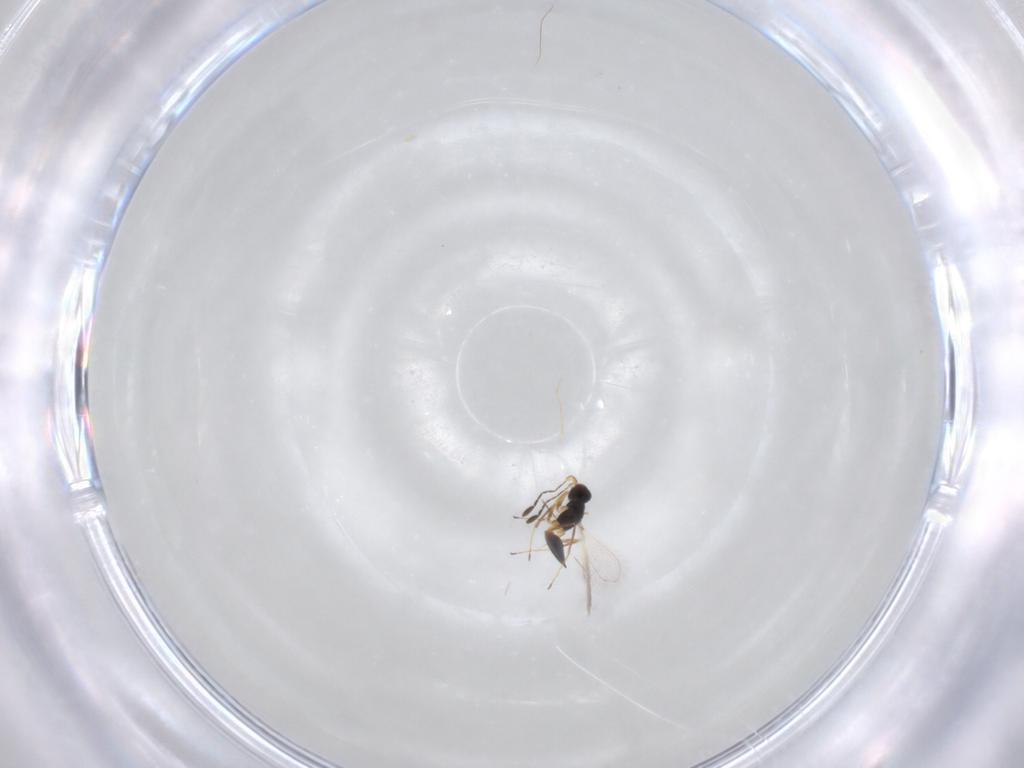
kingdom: Animalia
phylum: Arthropoda
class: Insecta
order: Hymenoptera
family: Mymaridae
